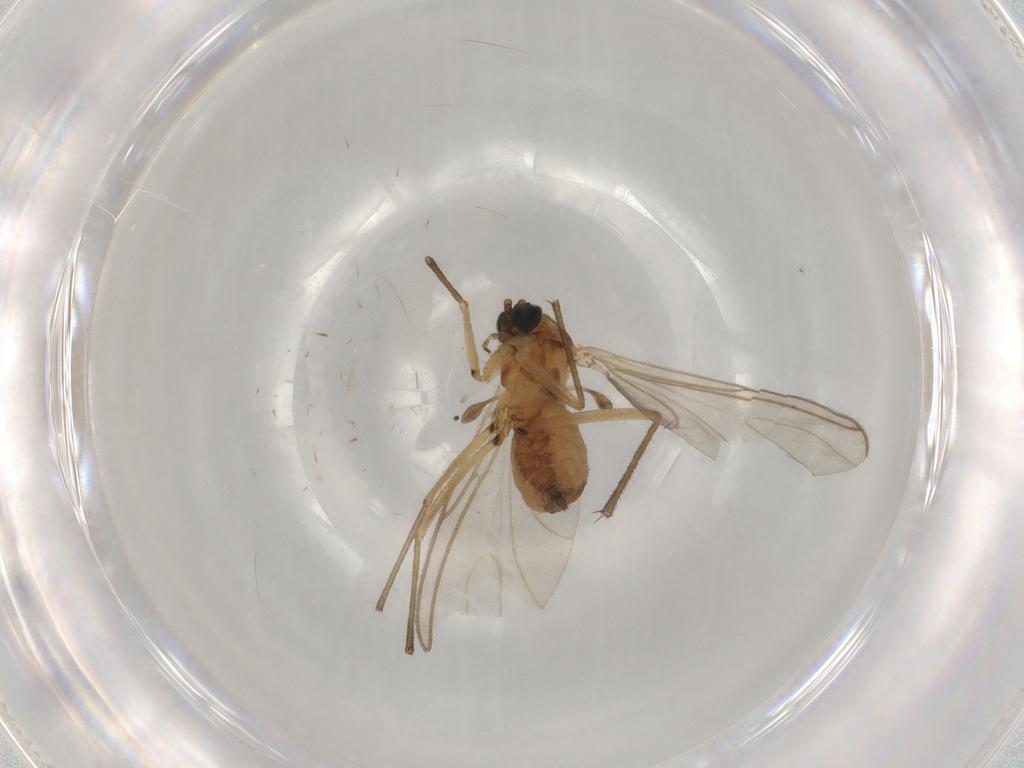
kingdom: Animalia
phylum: Arthropoda
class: Insecta
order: Diptera
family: Sciaridae
